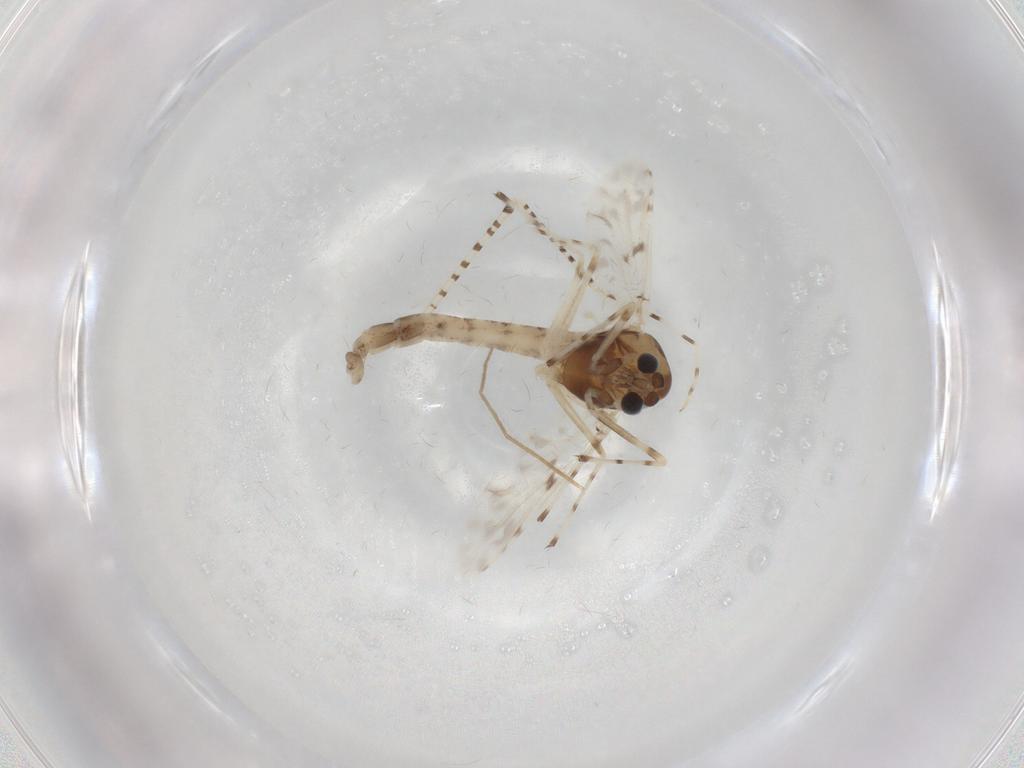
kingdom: Animalia
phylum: Arthropoda
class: Insecta
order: Diptera
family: Chironomidae
